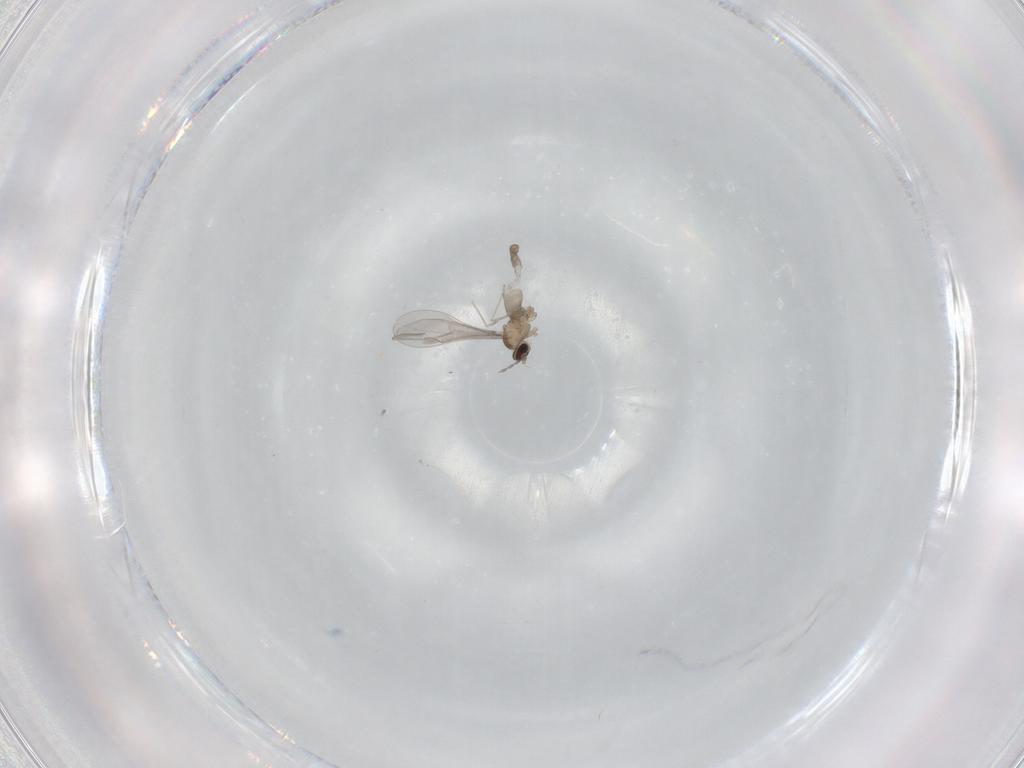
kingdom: Animalia
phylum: Arthropoda
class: Insecta
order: Diptera
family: Cecidomyiidae
